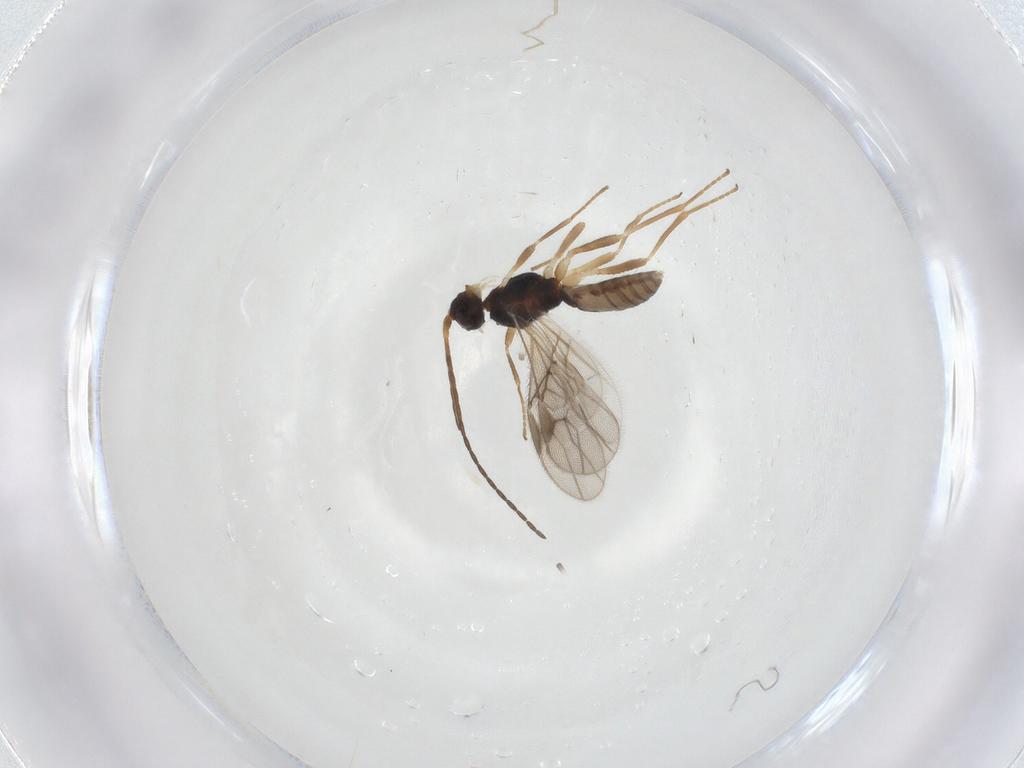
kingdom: Animalia
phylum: Arthropoda
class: Insecta
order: Hymenoptera
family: Braconidae
